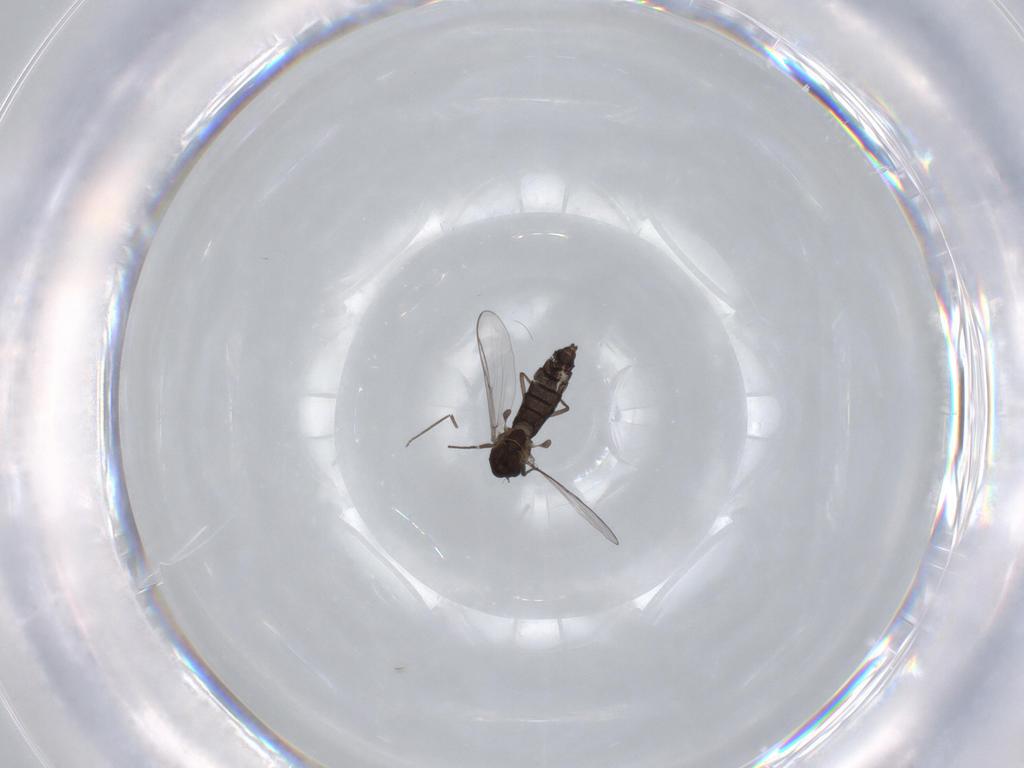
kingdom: Animalia
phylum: Arthropoda
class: Insecta
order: Diptera
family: Chironomidae
